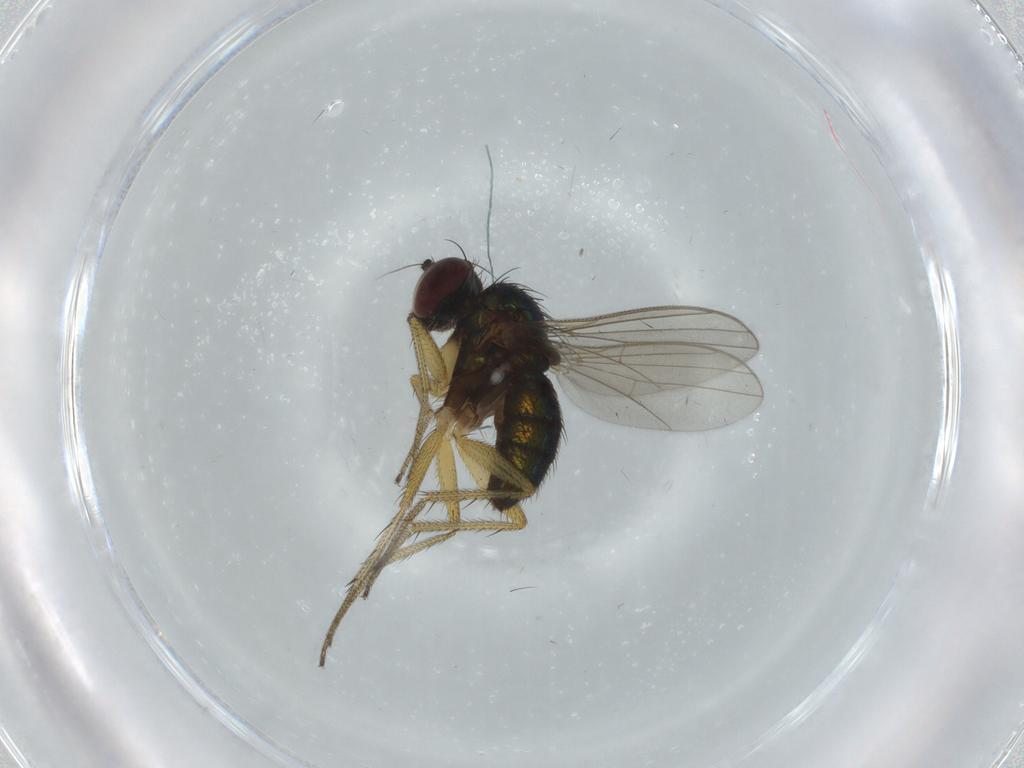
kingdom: Animalia
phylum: Arthropoda
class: Insecta
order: Diptera
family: Dolichopodidae
